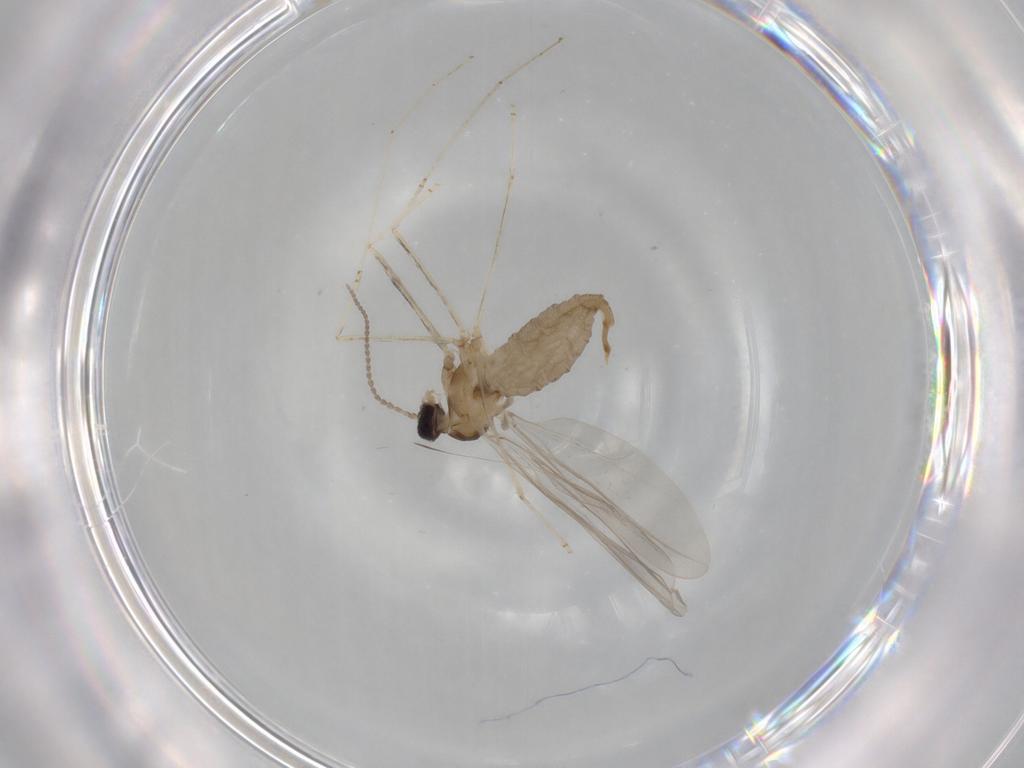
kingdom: Animalia
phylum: Arthropoda
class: Insecta
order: Diptera
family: Cecidomyiidae
